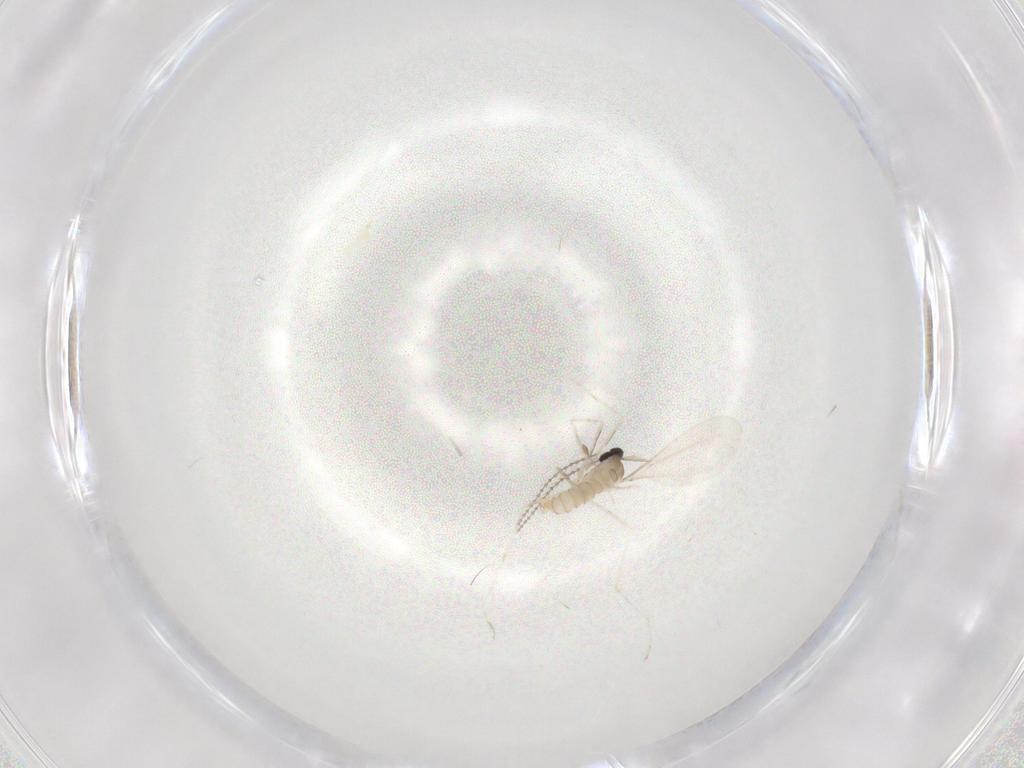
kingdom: Animalia
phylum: Arthropoda
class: Insecta
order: Diptera
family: Cecidomyiidae
